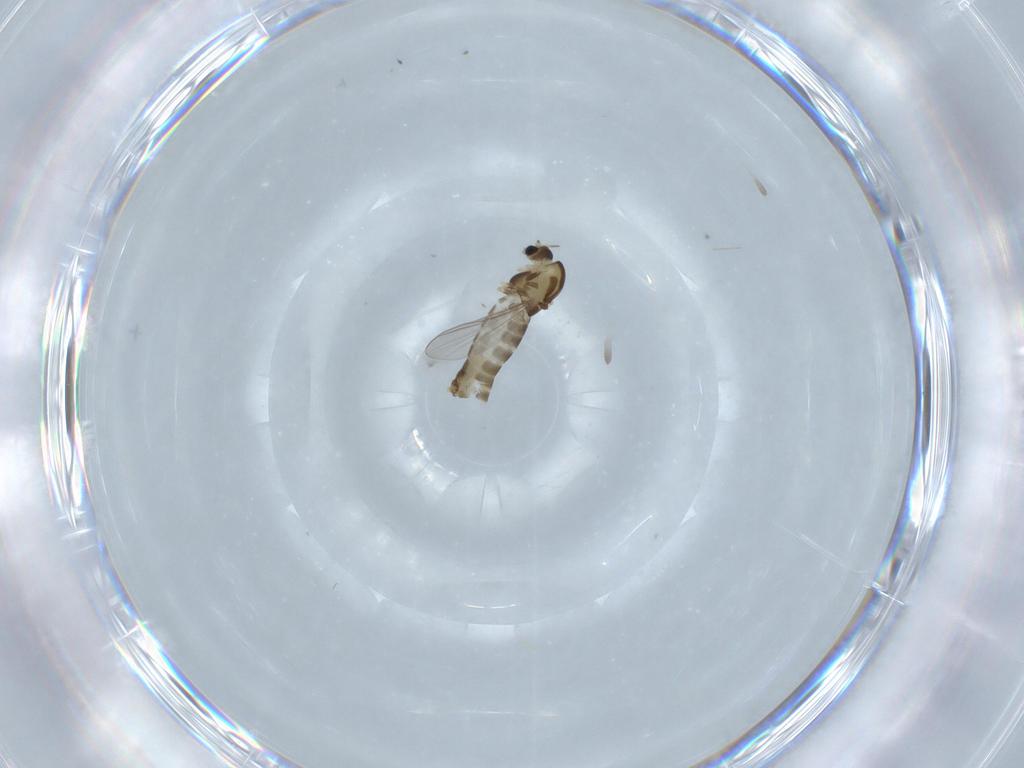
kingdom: Animalia
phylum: Arthropoda
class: Insecta
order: Diptera
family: Chironomidae
